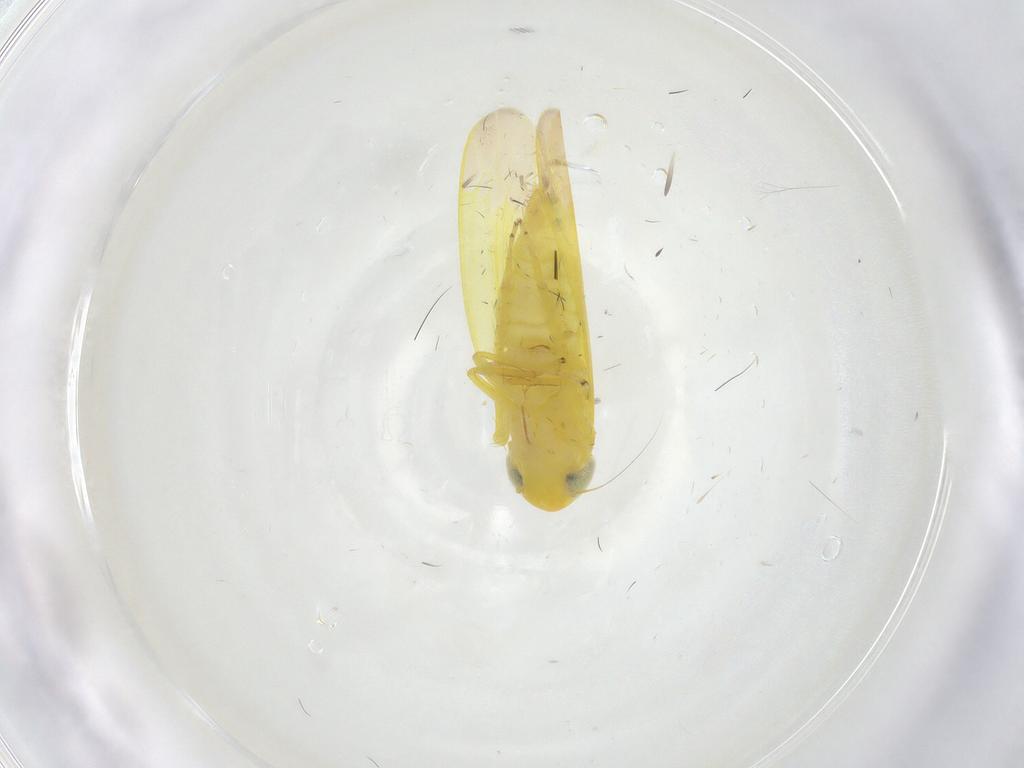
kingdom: Animalia
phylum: Arthropoda
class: Insecta
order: Hemiptera
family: Cicadellidae
